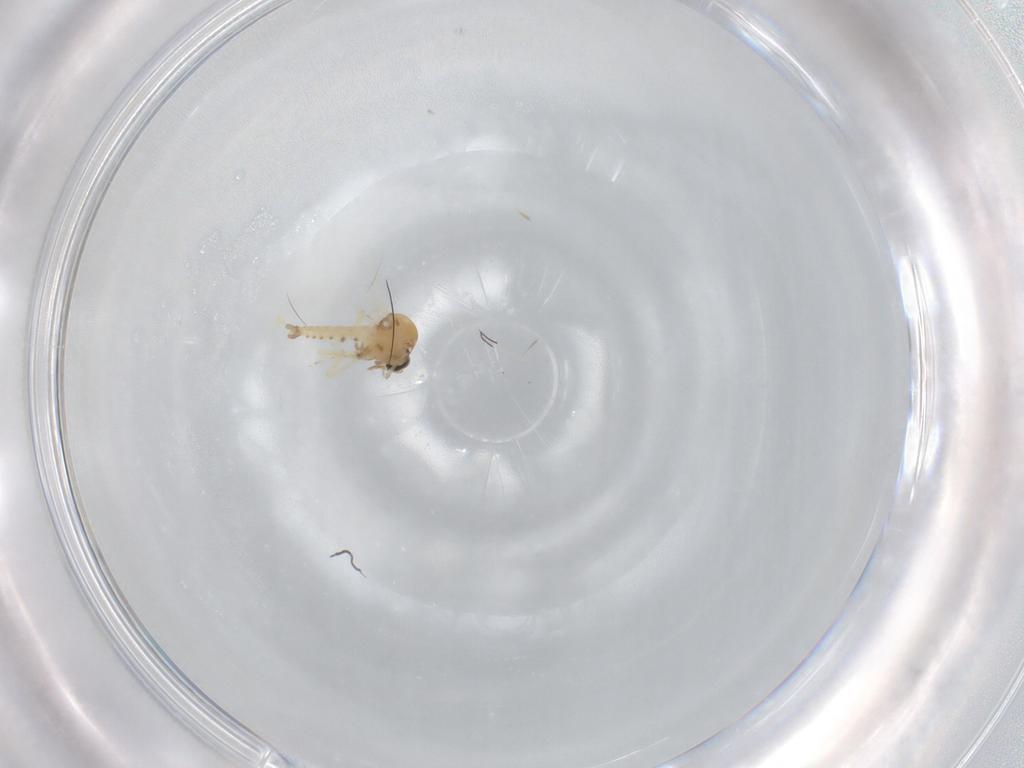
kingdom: Animalia
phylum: Arthropoda
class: Insecta
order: Diptera
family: Ceratopogonidae
